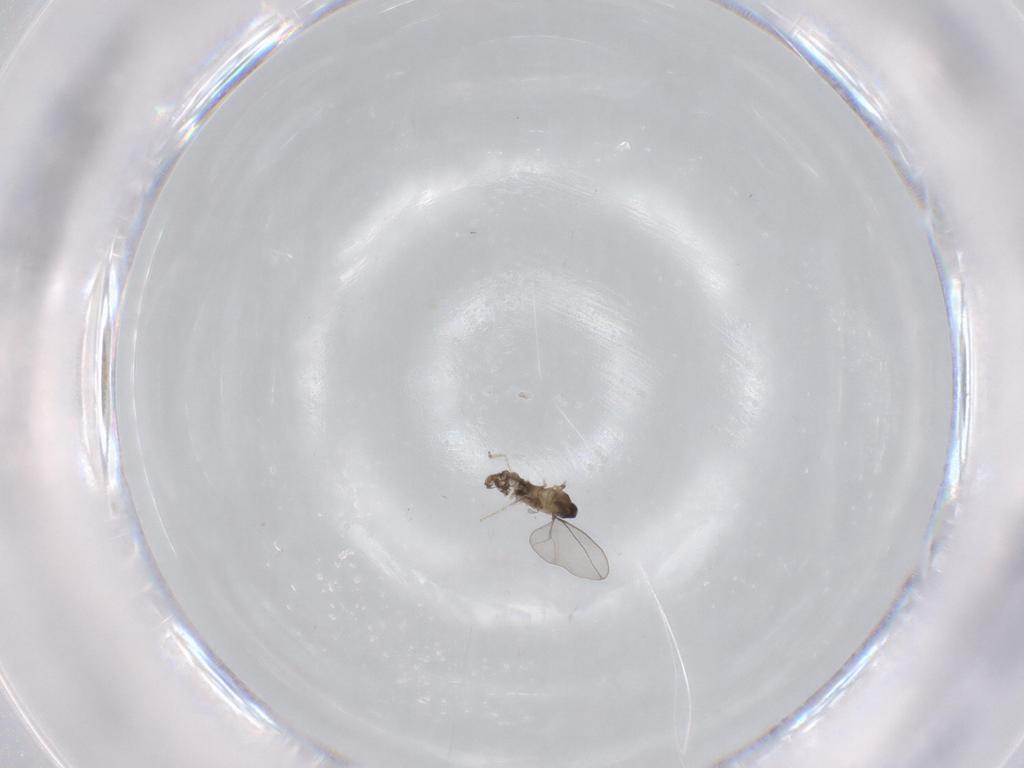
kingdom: Animalia
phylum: Arthropoda
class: Insecta
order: Diptera
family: Cecidomyiidae
